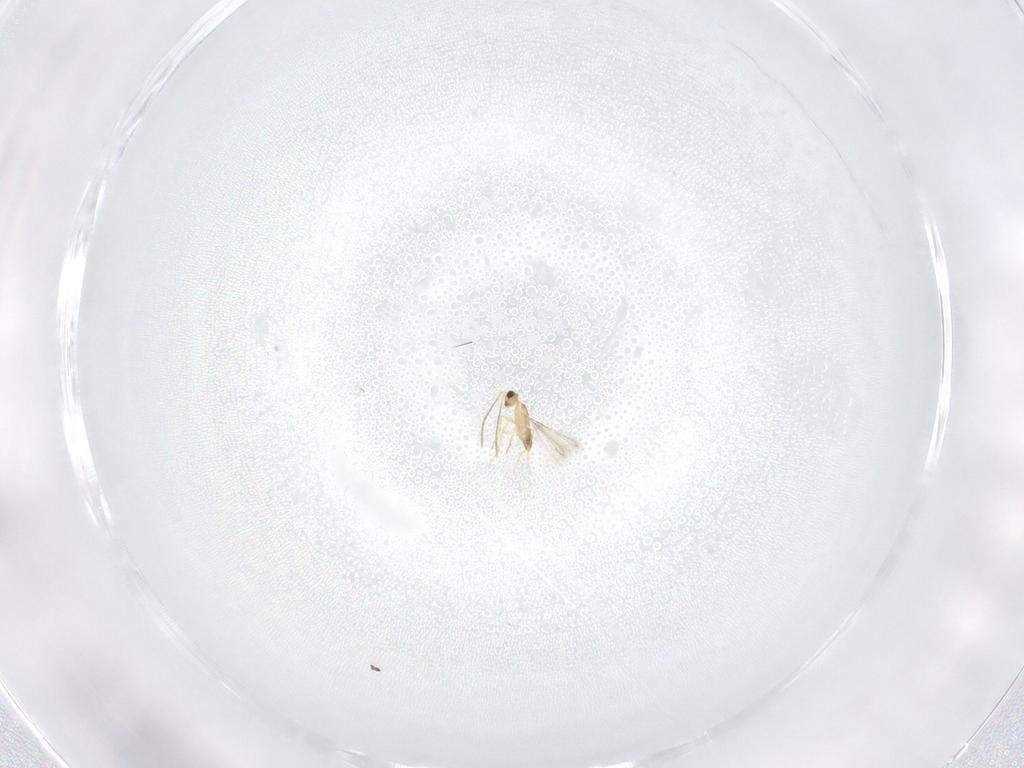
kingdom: Animalia
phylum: Arthropoda
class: Insecta
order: Hymenoptera
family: Mymaridae
